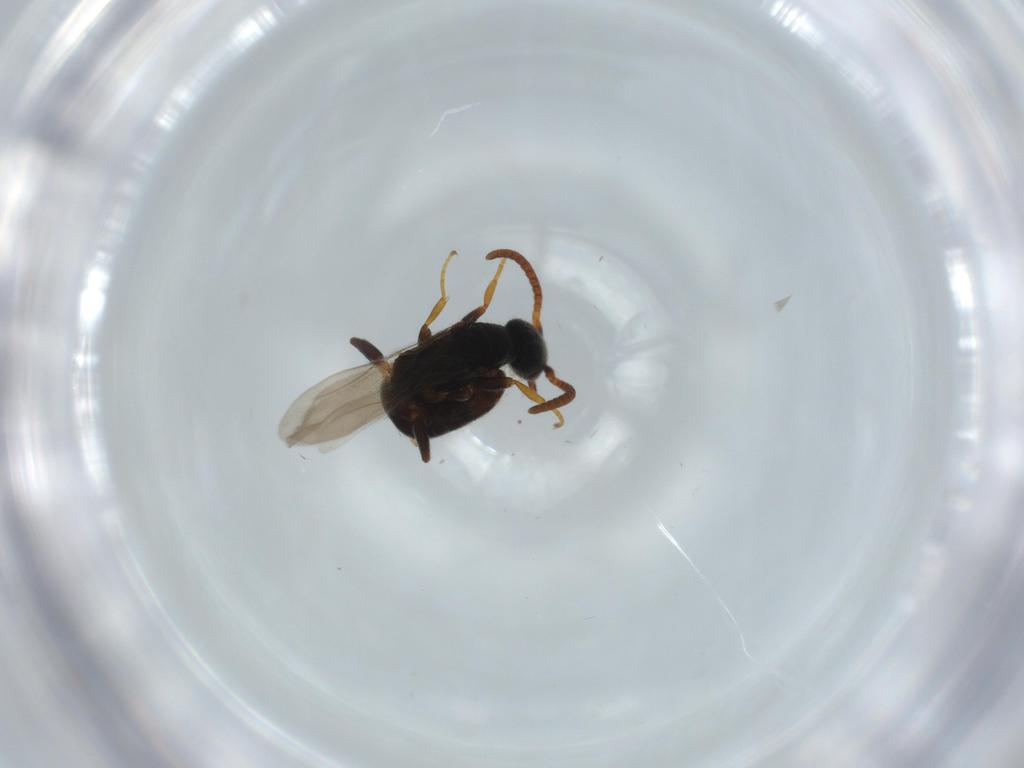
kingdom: Animalia
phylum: Arthropoda
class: Insecta
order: Hymenoptera
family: Bethylidae
